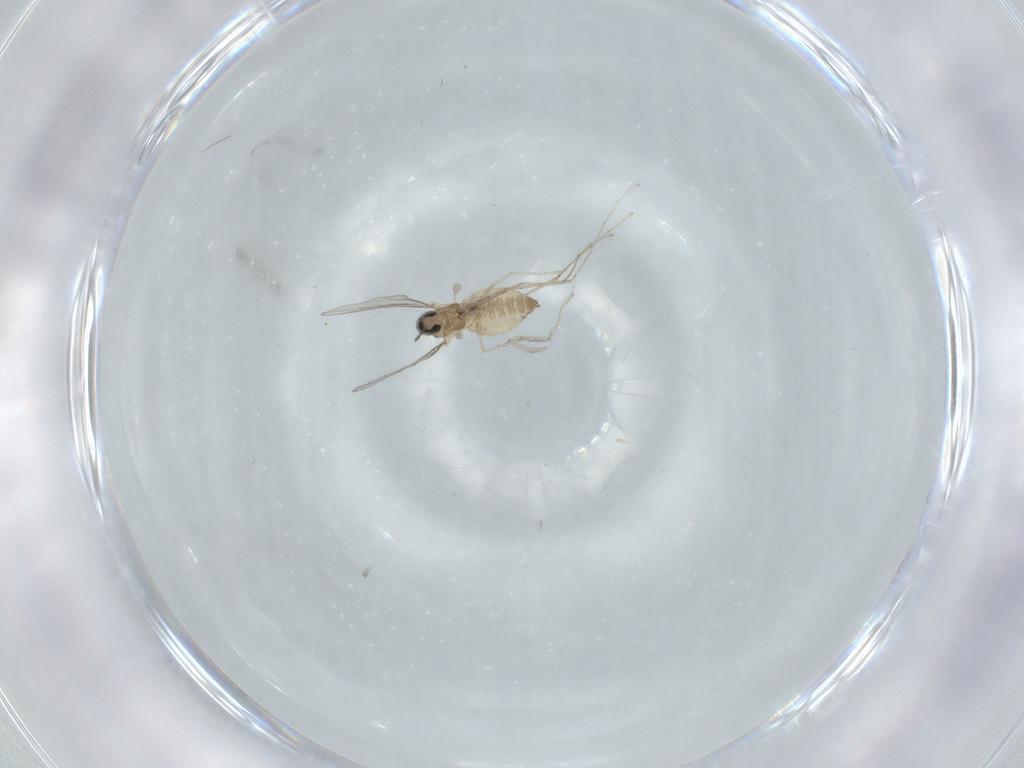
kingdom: Animalia
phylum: Arthropoda
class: Insecta
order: Diptera
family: Cecidomyiidae
